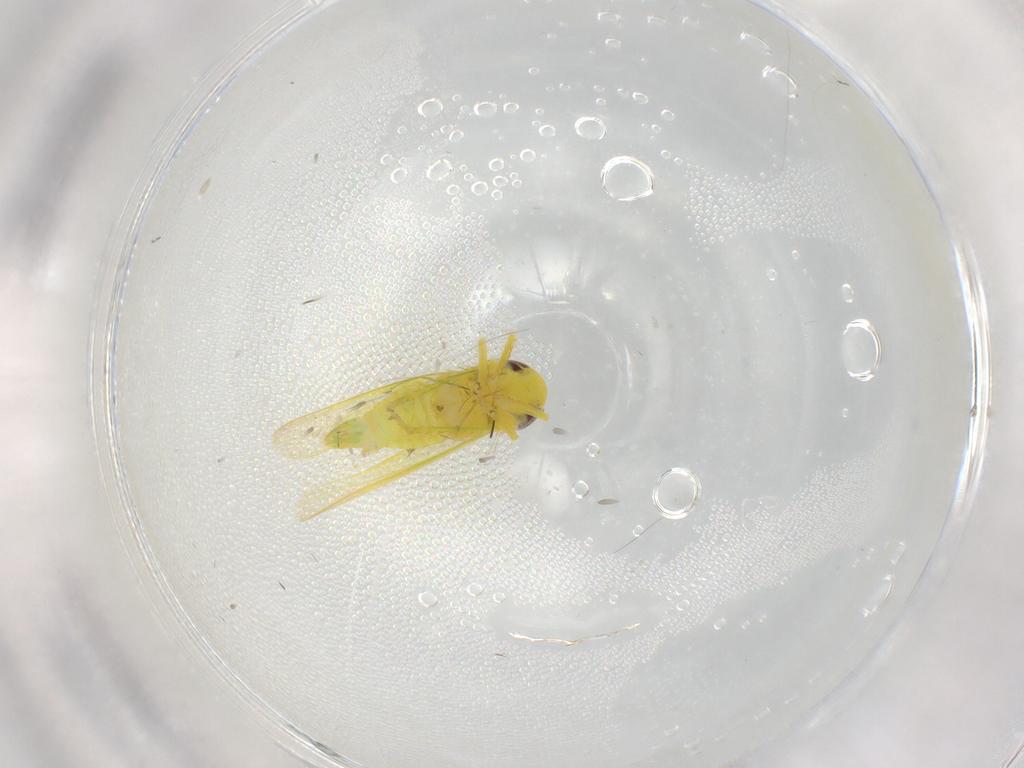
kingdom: Animalia
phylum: Arthropoda
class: Insecta
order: Hemiptera
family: Cicadellidae
